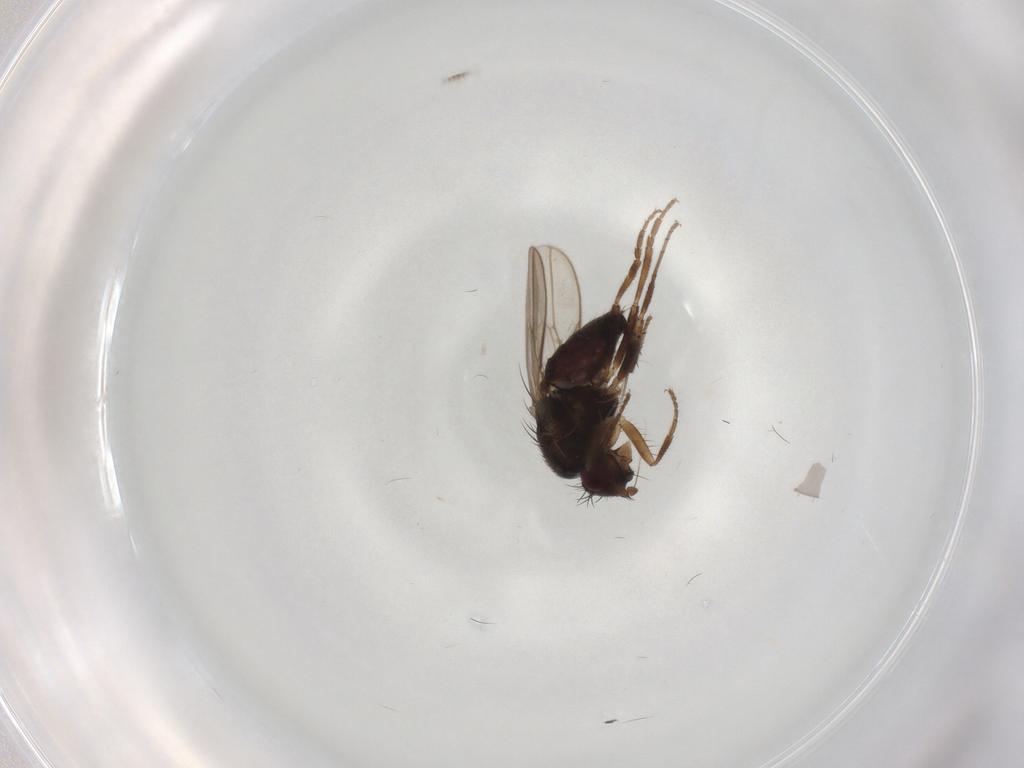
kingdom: Animalia
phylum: Arthropoda
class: Insecta
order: Diptera
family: Sphaeroceridae
